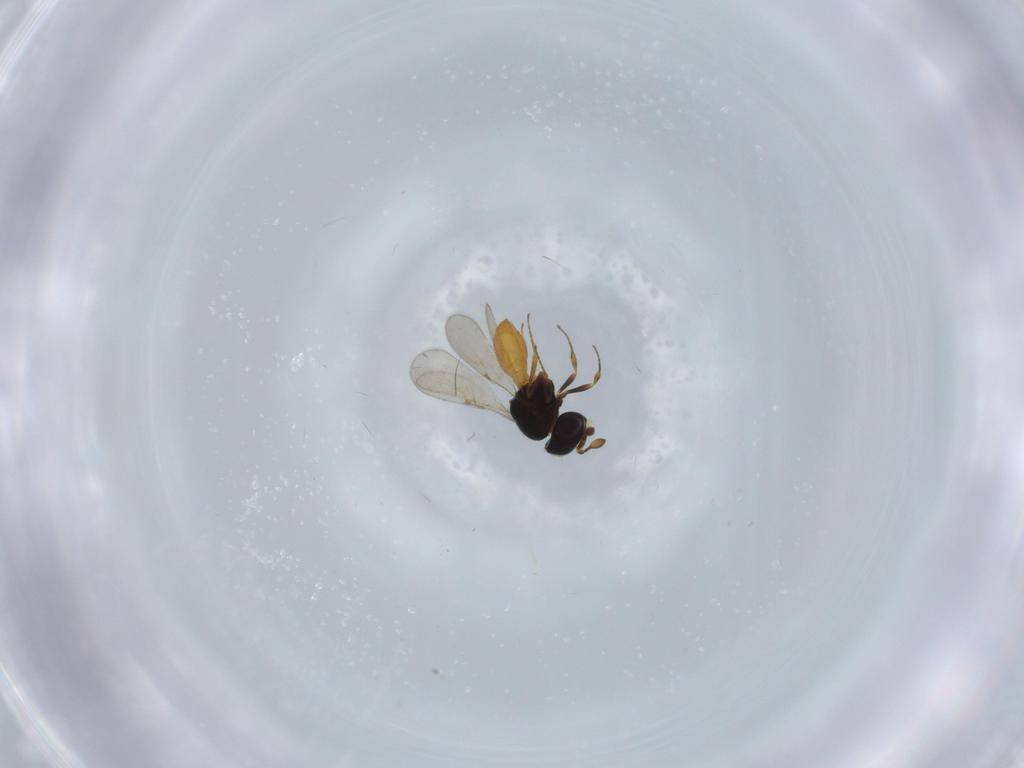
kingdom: Animalia
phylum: Arthropoda
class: Insecta
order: Hymenoptera
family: Scelionidae
